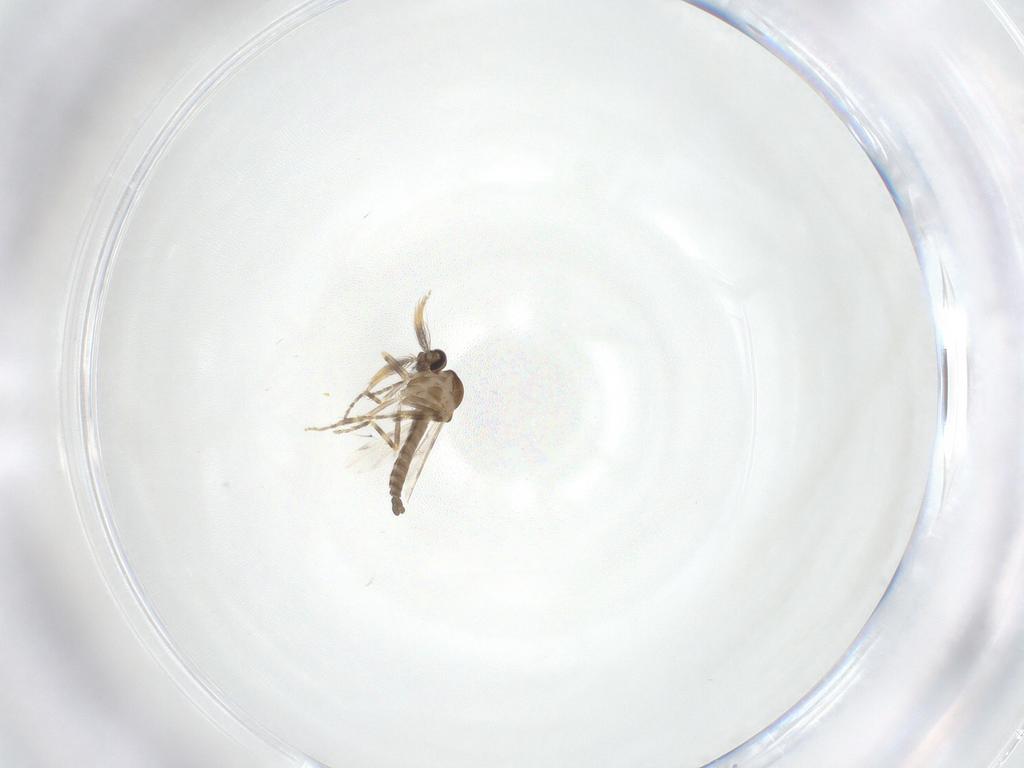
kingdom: Animalia
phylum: Arthropoda
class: Insecta
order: Diptera
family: Ceratopogonidae
